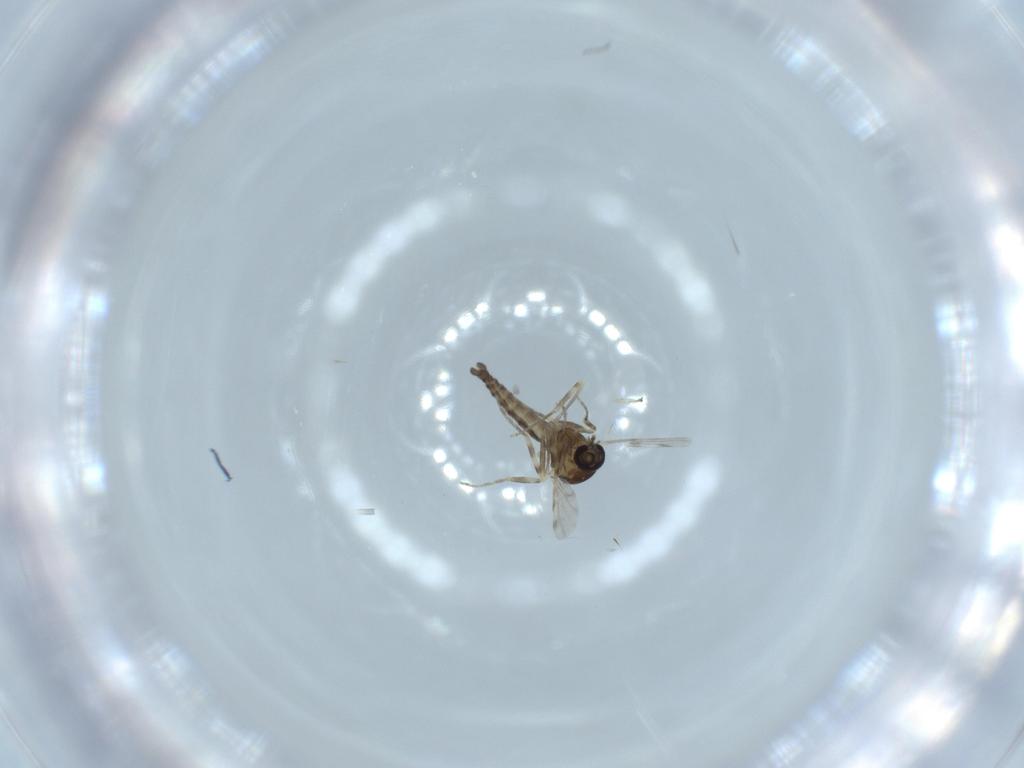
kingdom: Animalia
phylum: Arthropoda
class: Insecta
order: Diptera
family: Ceratopogonidae
